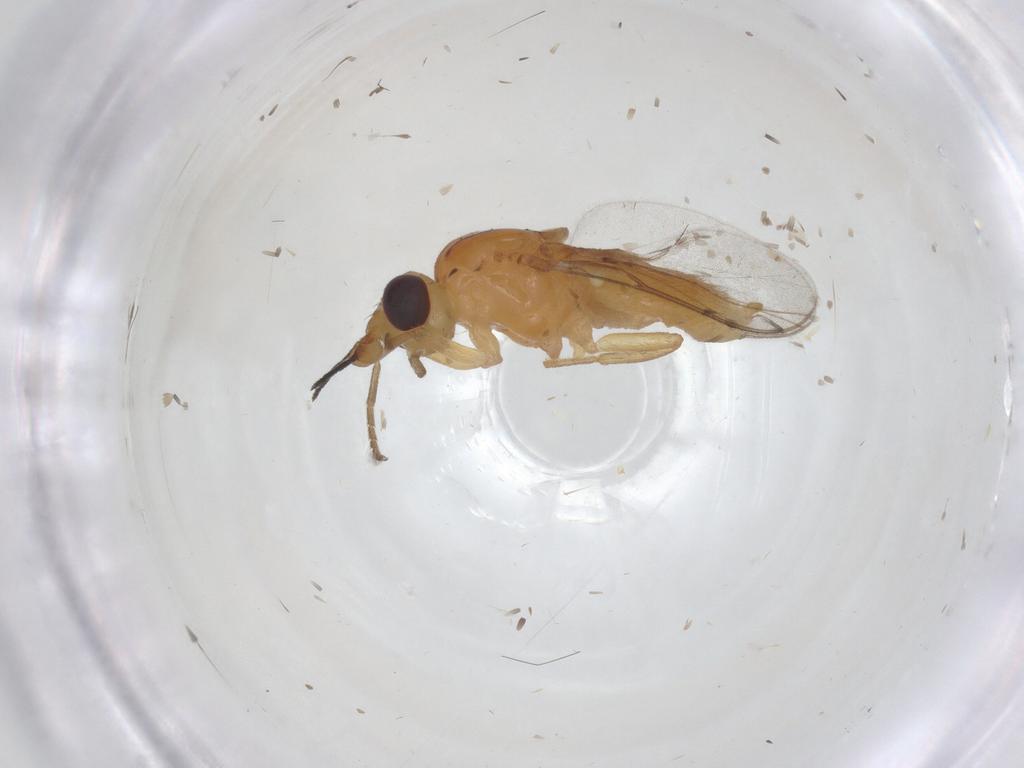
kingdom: Animalia
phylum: Arthropoda
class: Insecta
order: Diptera
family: Chloropidae
